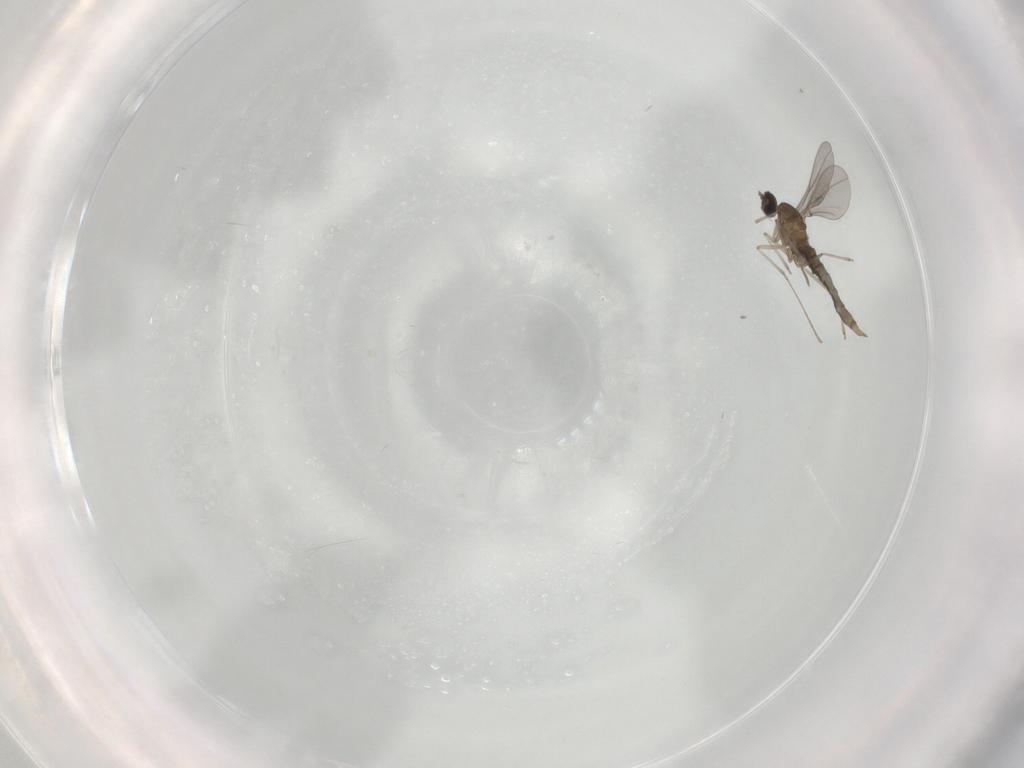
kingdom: Animalia
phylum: Arthropoda
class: Insecta
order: Diptera
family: Cecidomyiidae
